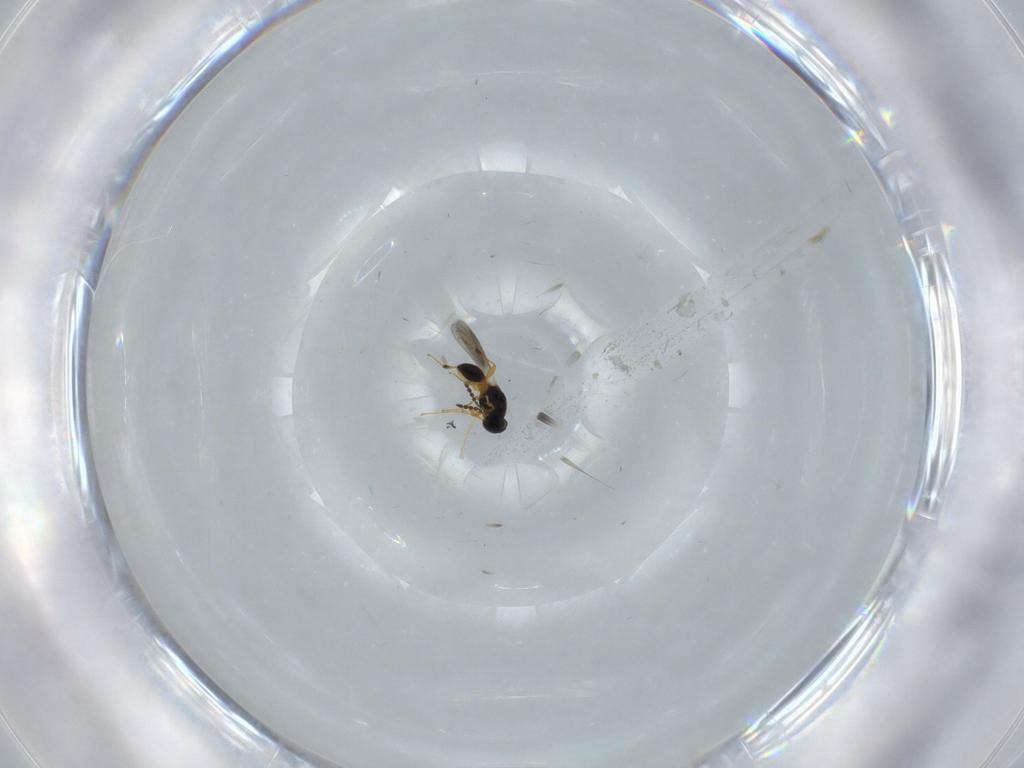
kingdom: Animalia
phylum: Arthropoda
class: Insecta
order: Hymenoptera
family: Platygastridae
